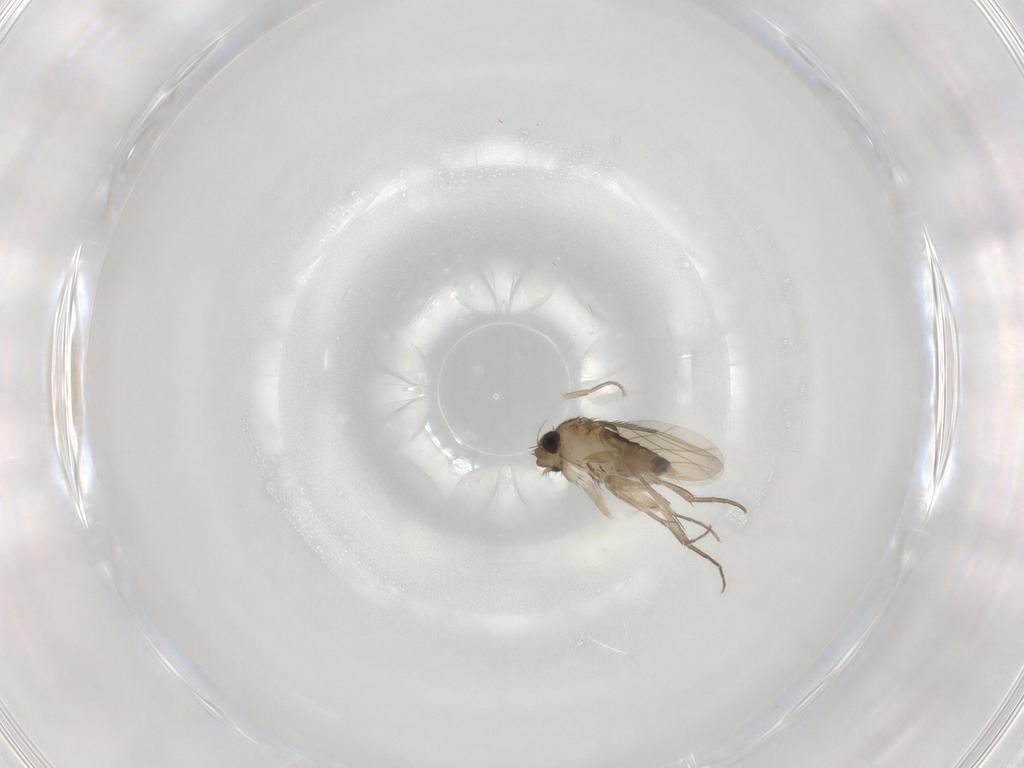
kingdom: Animalia
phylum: Arthropoda
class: Insecta
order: Diptera
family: Phoridae
